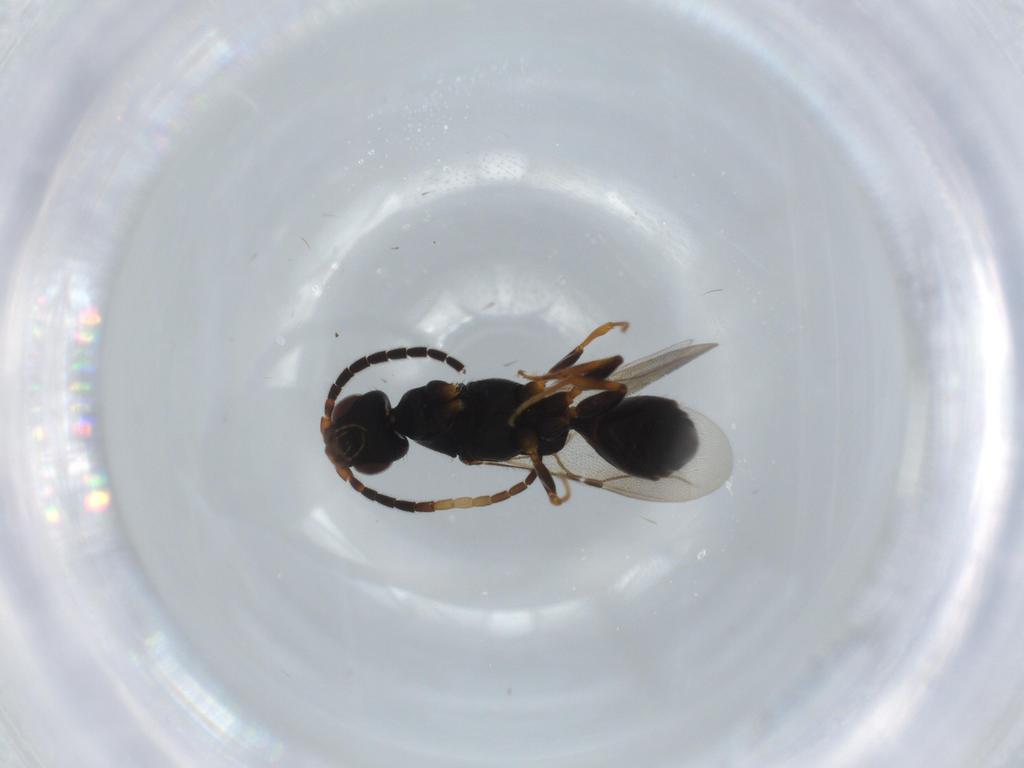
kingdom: Animalia
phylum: Arthropoda
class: Insecta
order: Hymenoptera
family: Bethylidae
